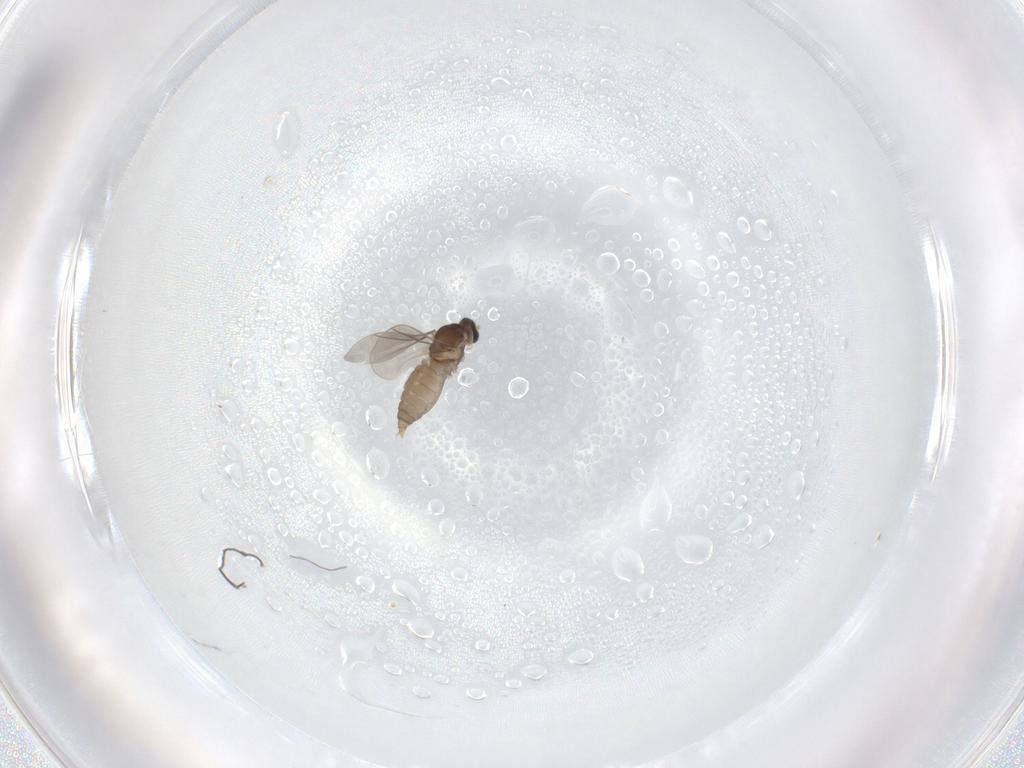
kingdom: Animalia
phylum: Arthropoda
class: Insecta
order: Diptera
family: Cecidomyiidae
